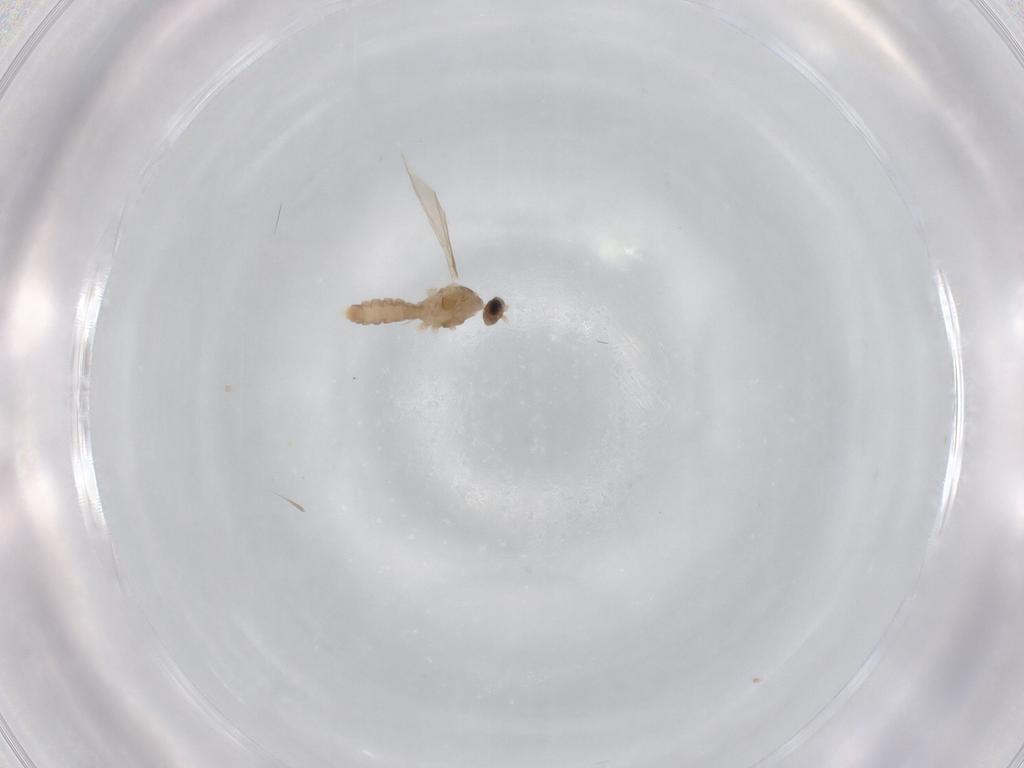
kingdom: Animalia
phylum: Arthropoda
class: Insecta
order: Diptera
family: Cecidomyiidae
